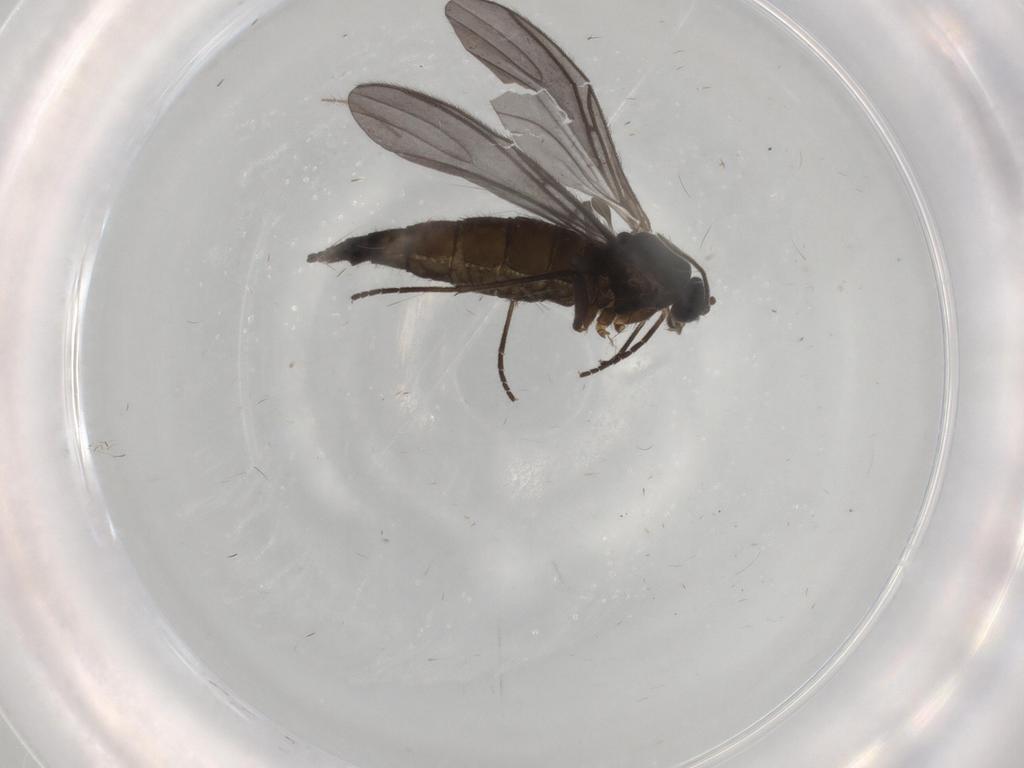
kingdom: Animalia
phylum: Arthropoda
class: Insecta
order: Diptera
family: Sciaridae
